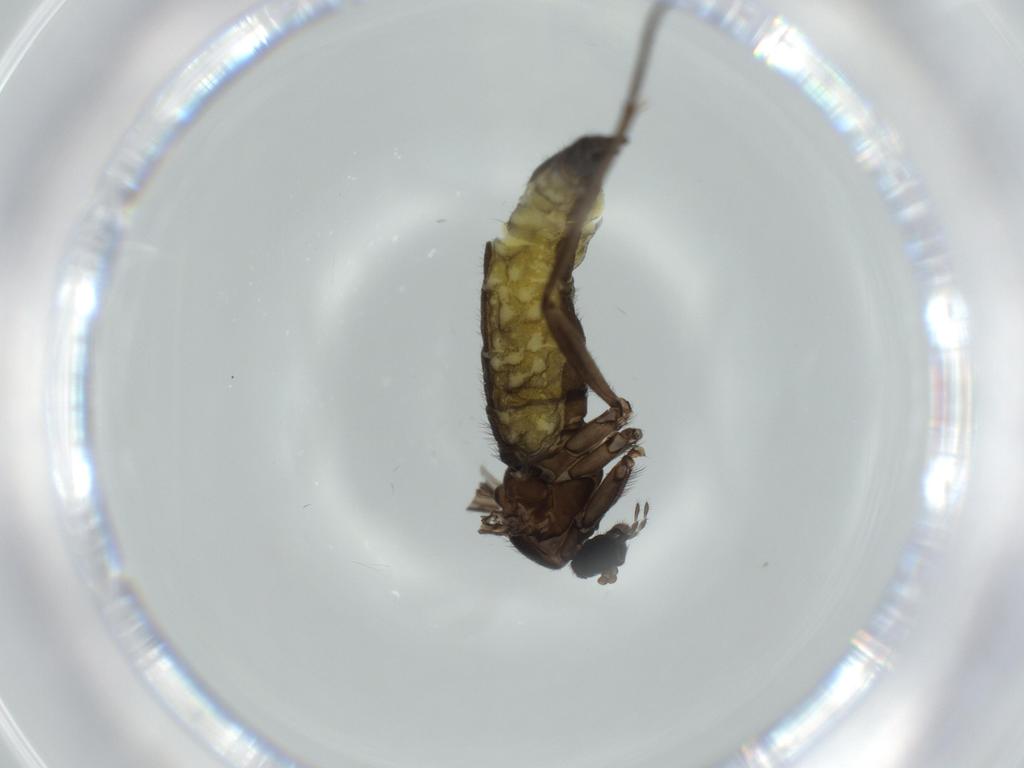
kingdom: Animalia
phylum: Arthropoda
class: Insecta
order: Diptera
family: Sciaridae
